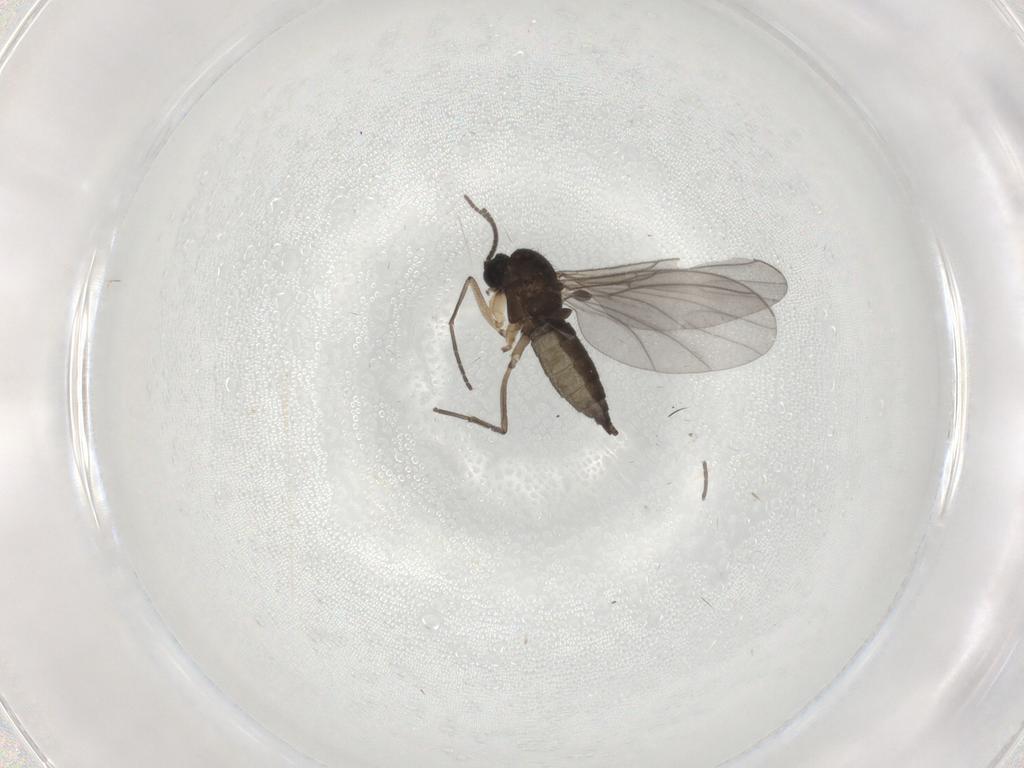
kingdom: Animalia
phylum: Arthropoda
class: Insecta
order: Diptera
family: Sciaridae
